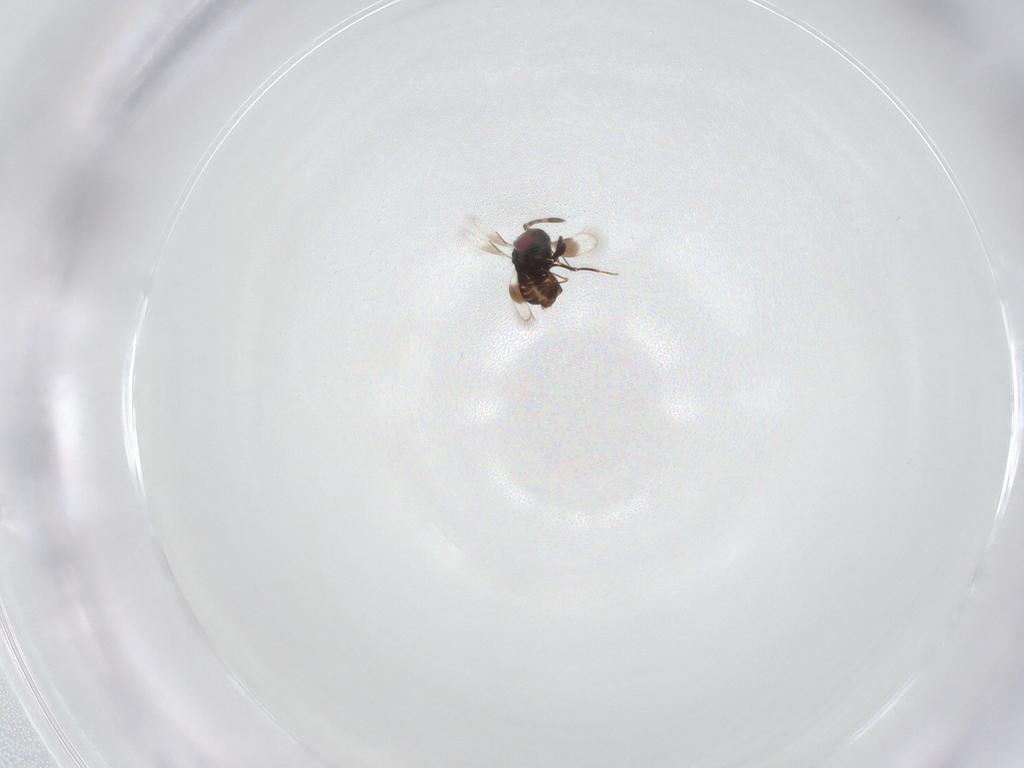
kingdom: Animalia
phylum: Arthropoda
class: Insecta
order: Hymenoptera
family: Azotidae
